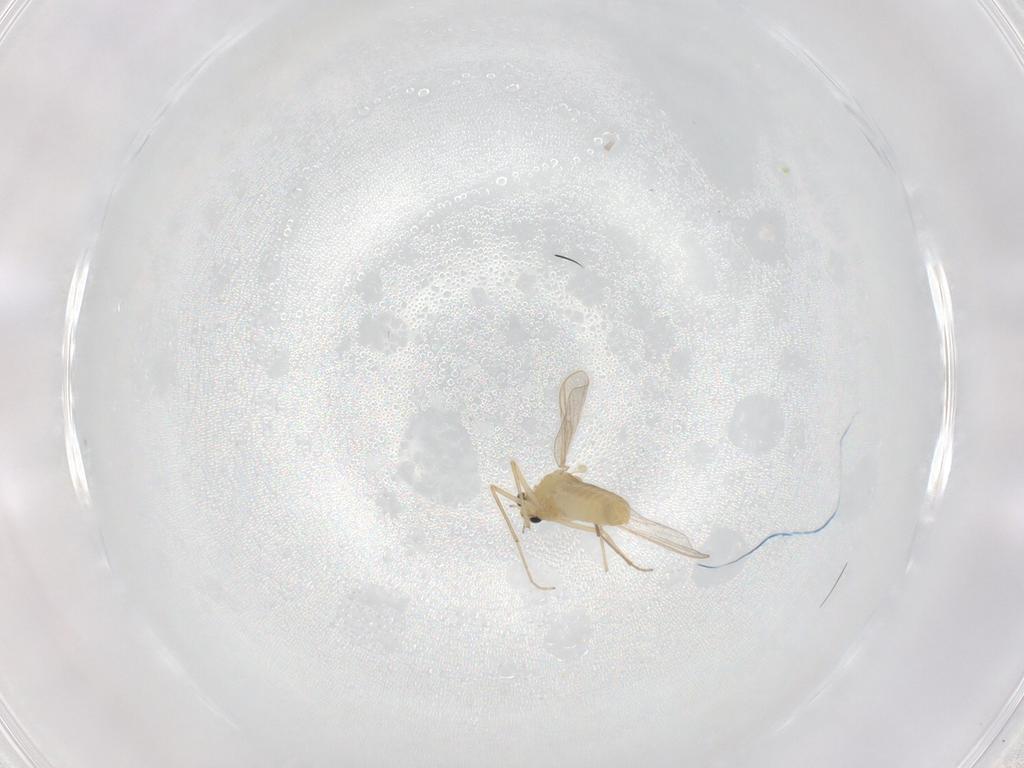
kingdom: Animalia
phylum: Arthropoda
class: Insecta
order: Diptera
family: Chironomidae
